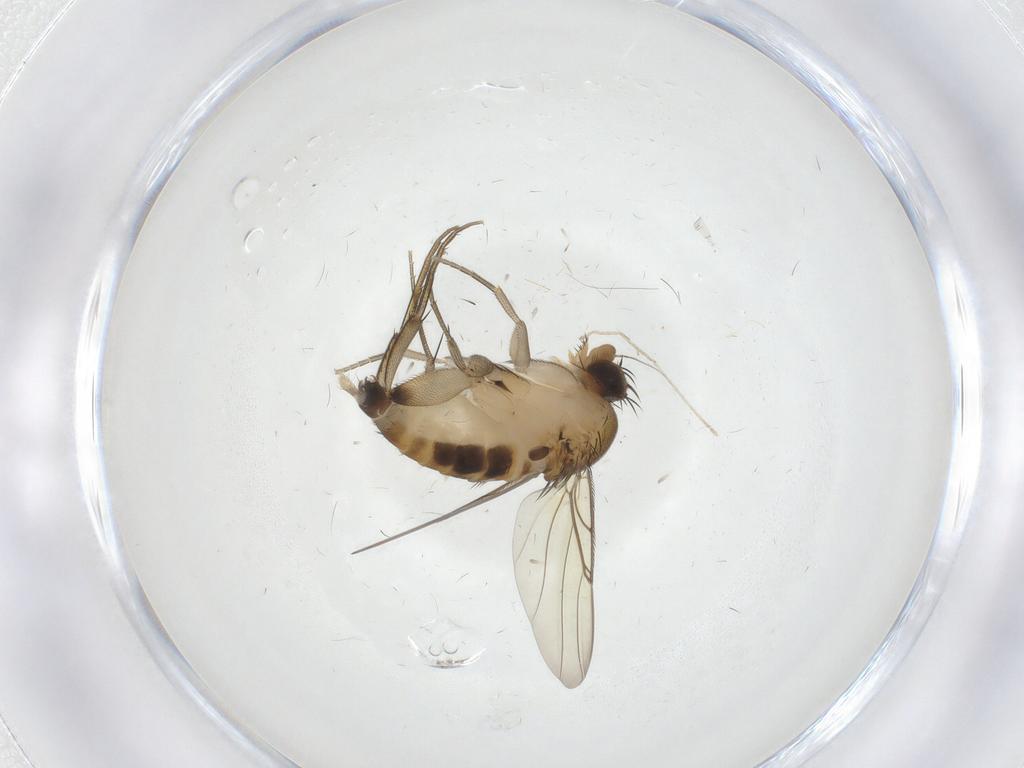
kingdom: Animalia
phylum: Arthropoda
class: Insecta
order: Diptera
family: Phoridae
